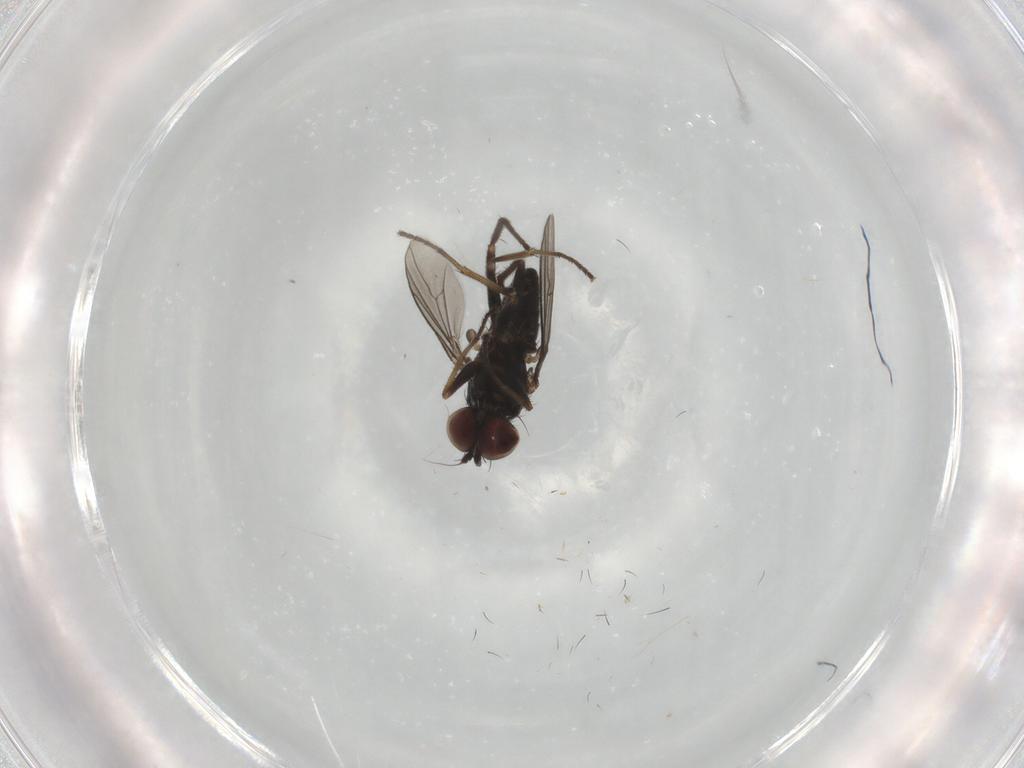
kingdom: Animalia
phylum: Arthropoda
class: Insecta
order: Diptera
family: Dolichopodidae
